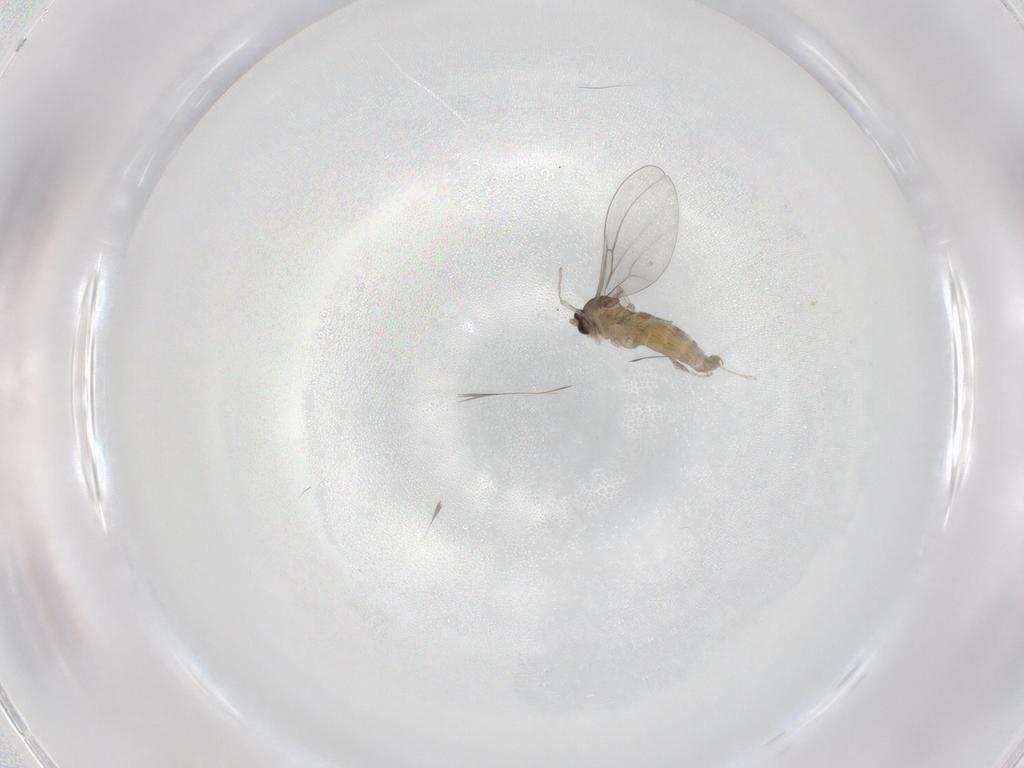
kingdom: Animalia
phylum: Arthropoda
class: Insecta
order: Diptera
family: Cecidomyiidae
